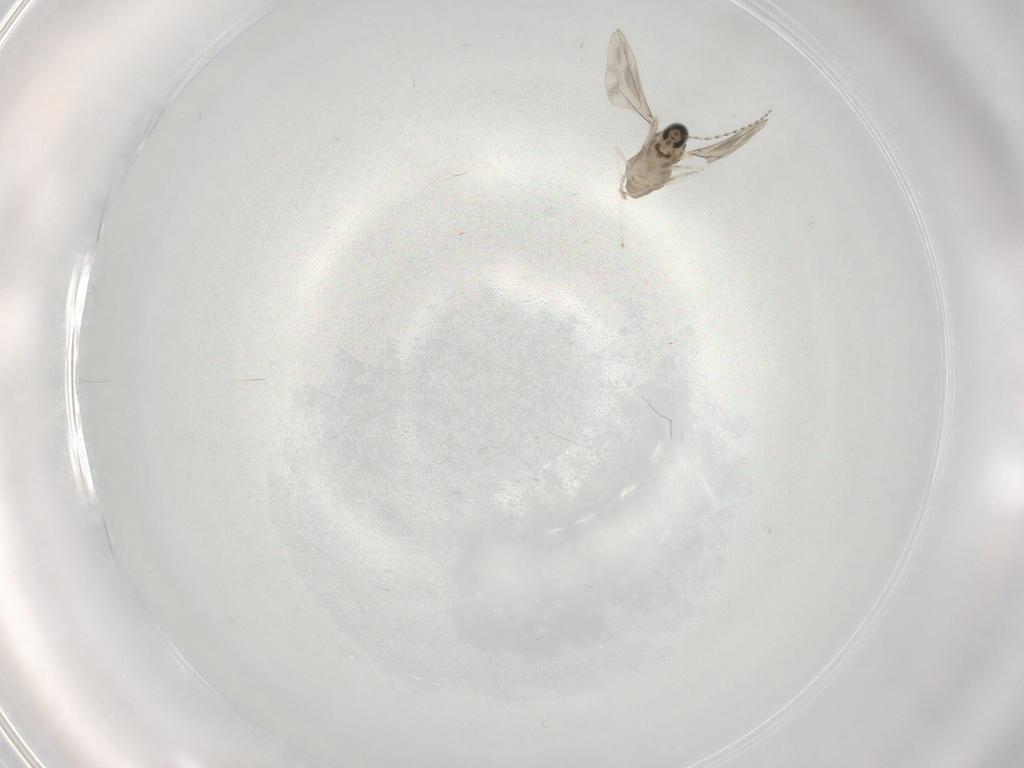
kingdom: Animalia
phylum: Arthropoda
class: Insecta
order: Diptera
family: Cecidomyiidae
